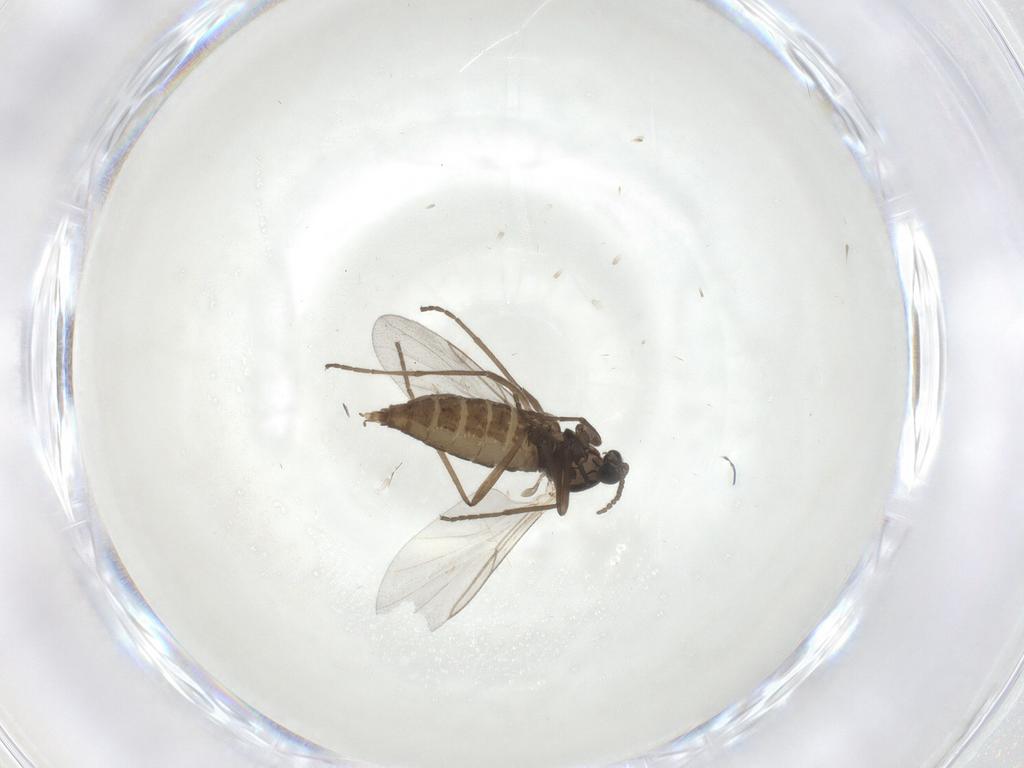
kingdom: Animalia
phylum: Arthropoda
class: Insecta
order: Diptera
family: Cecidomyiidae
